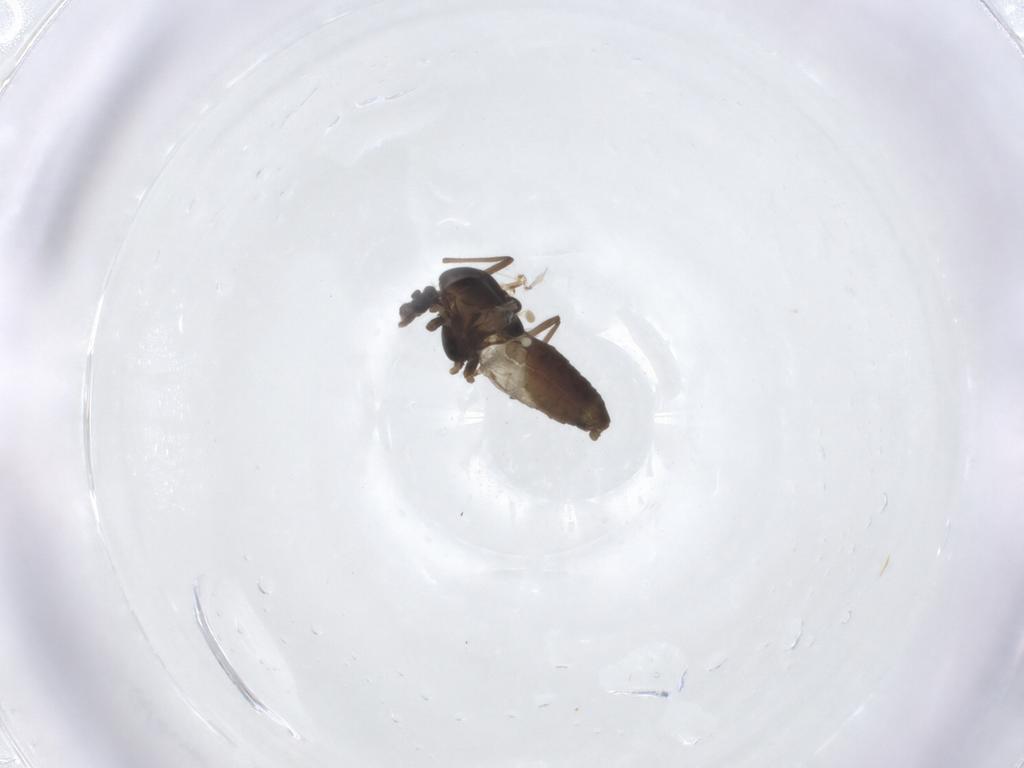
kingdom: Animalia
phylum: Arthropoda
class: Insecta
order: Diptera
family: Chironomidae
